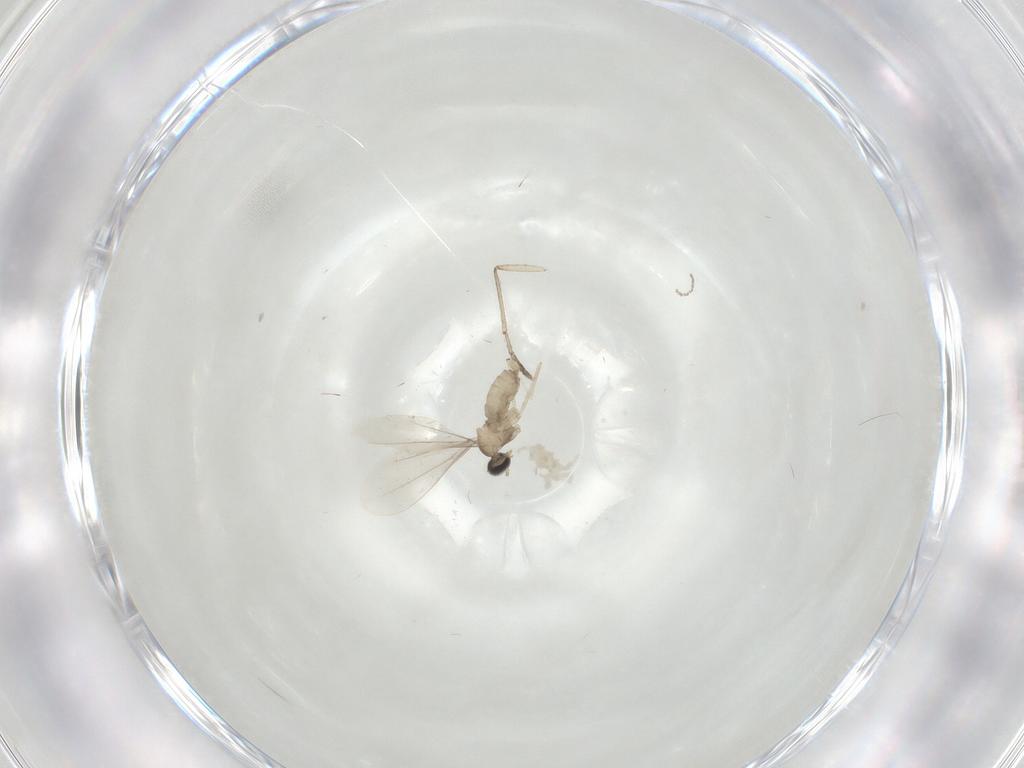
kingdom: Animalia
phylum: Arthropoda
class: Insecta
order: Diptera
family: Cecidomyiidae
